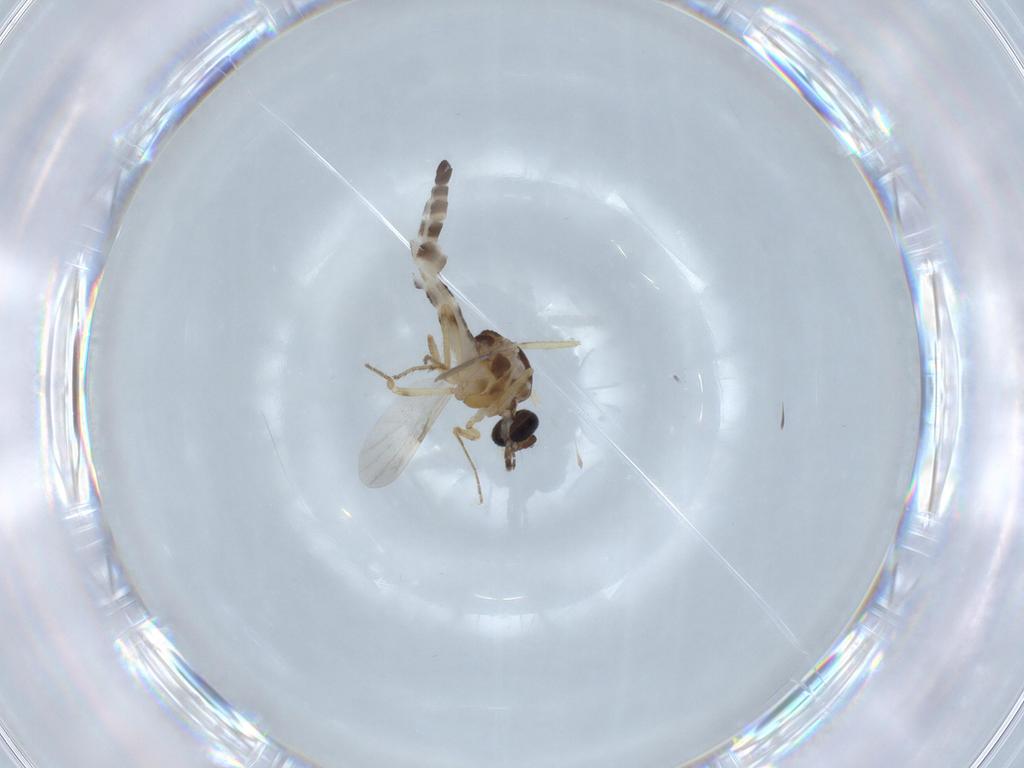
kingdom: Animalia
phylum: Arthropoda
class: Insecta
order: Diptera
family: Ceratopogonidae
